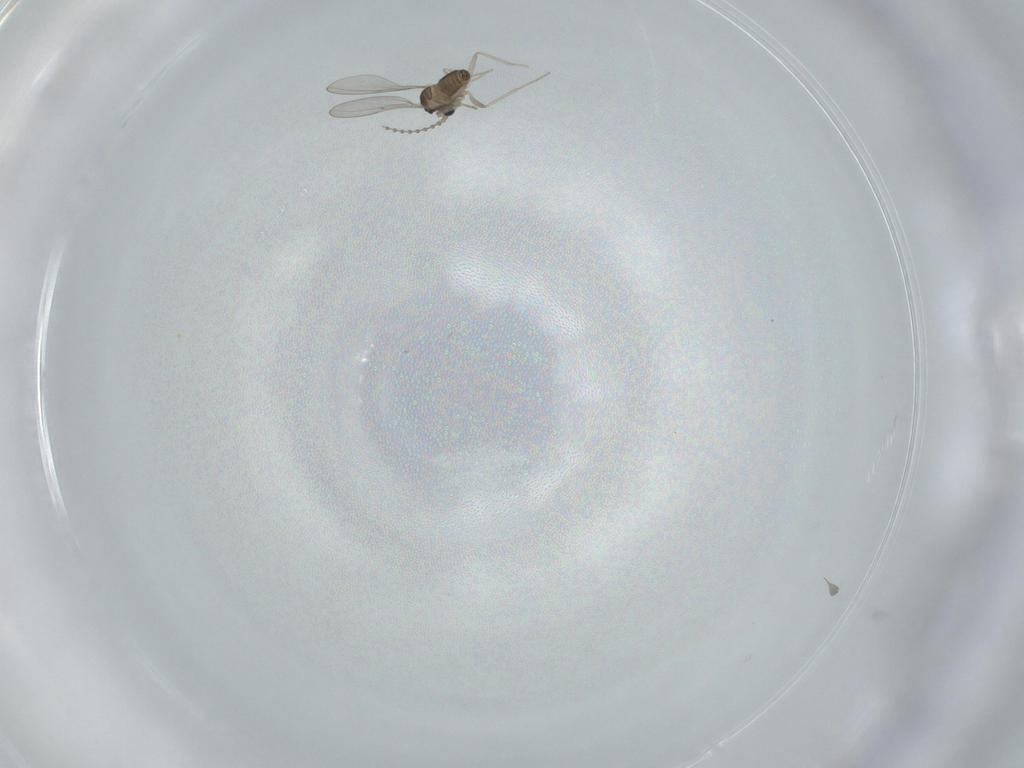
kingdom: Animalia
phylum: Arthropoda
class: Insecta
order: Diptera
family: Cecidomyiidae
